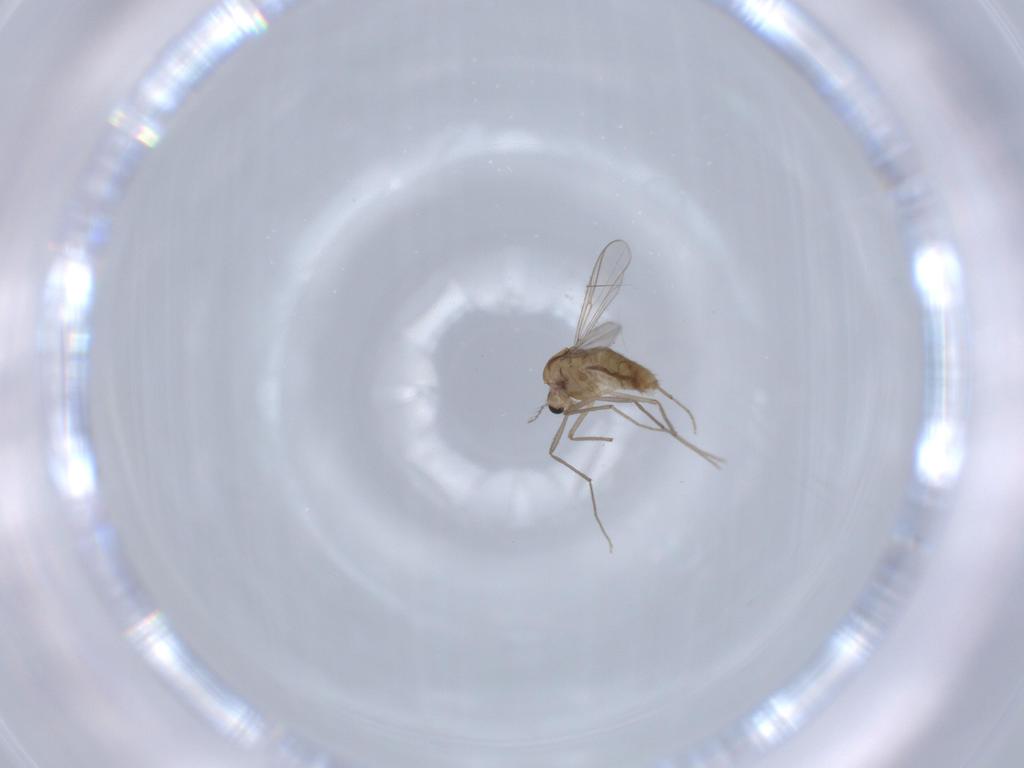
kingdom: Animalia
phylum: Arthropoda
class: Insecta
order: Diptera
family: Chironomidae
